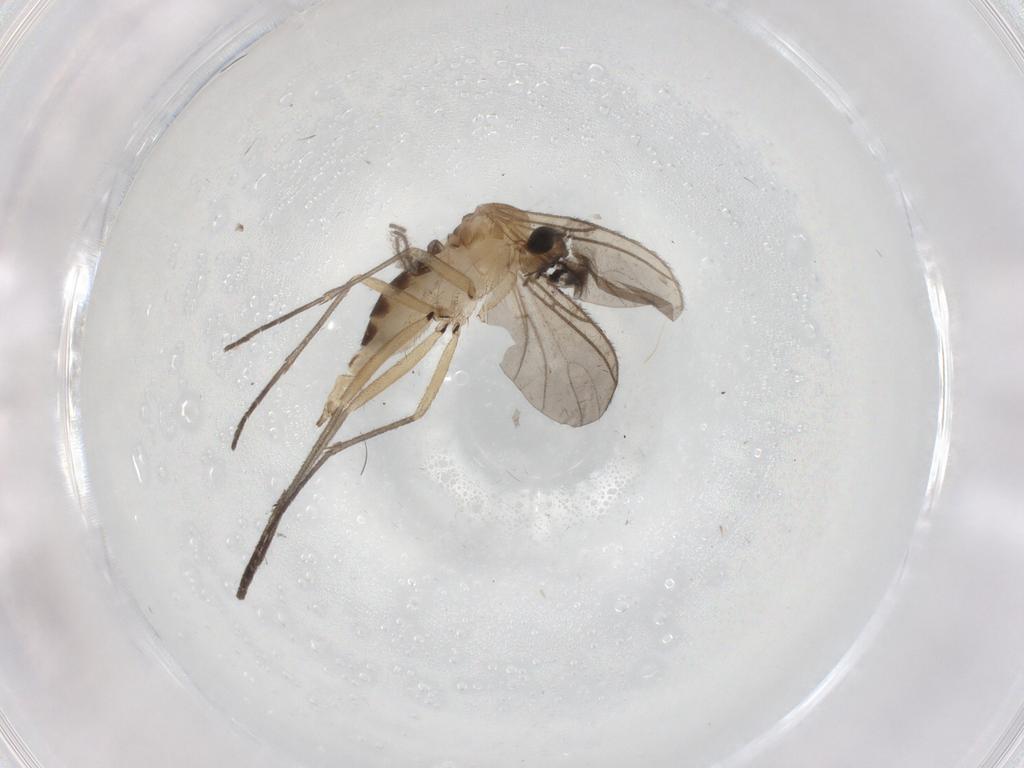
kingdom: Animalia
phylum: Arthropoda
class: Insecta
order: Diptera
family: Sciaridae
